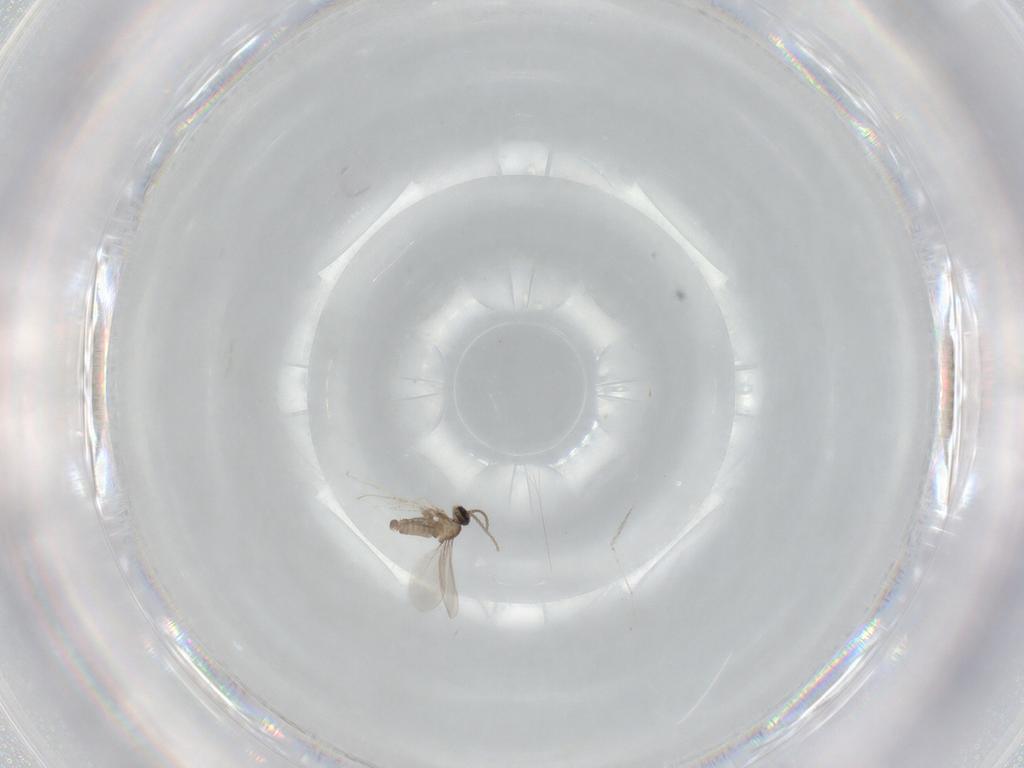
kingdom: Animalia
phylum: Arthropoda
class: Insecta
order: Diptera
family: Cecidomyiidae
